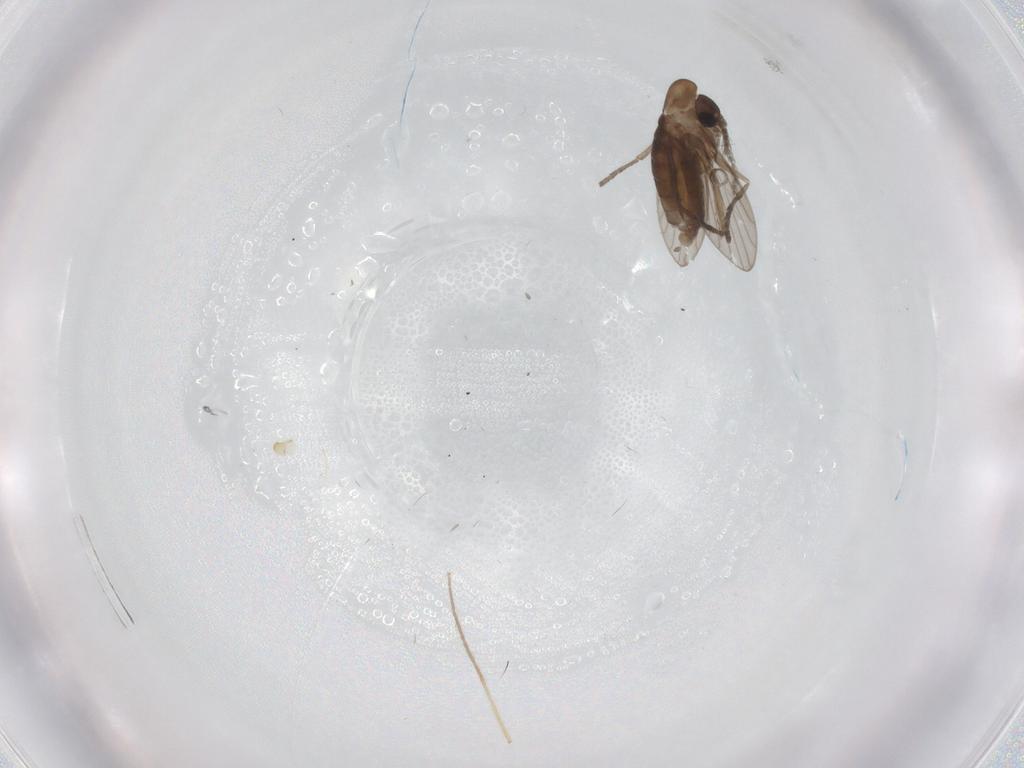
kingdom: Animalia
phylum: Arthropoda
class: Insecta
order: Diptera
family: Chironomidae
